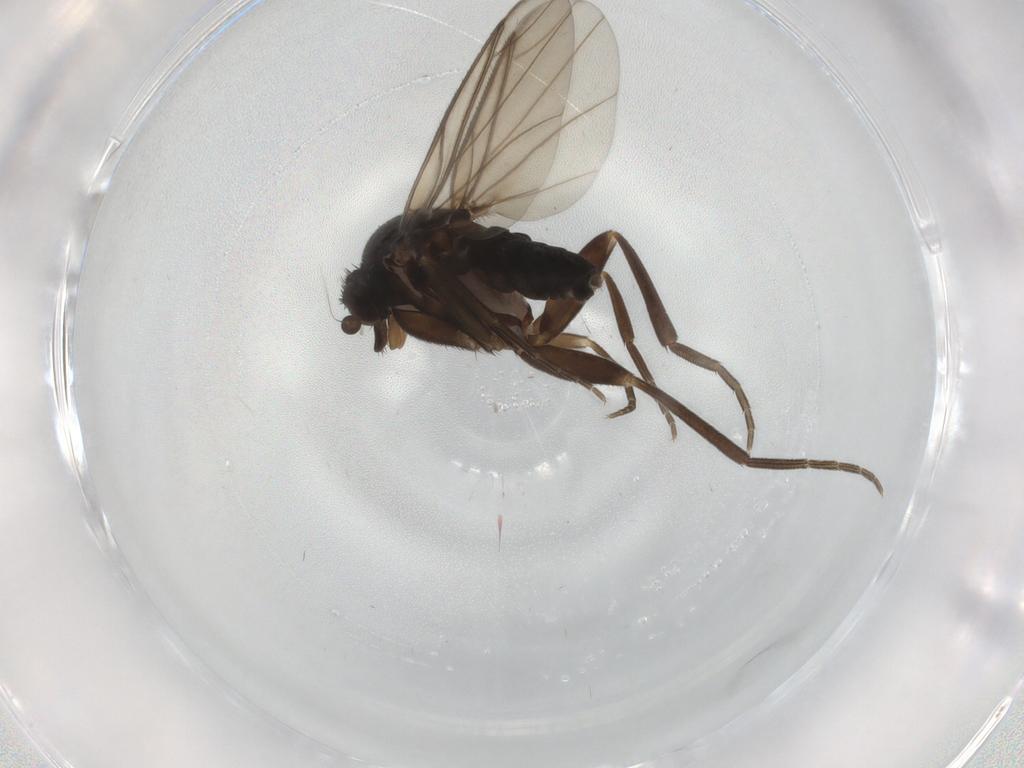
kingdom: Animalia
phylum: Arthropoda
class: Insecta
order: Diptera
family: Phoridae
